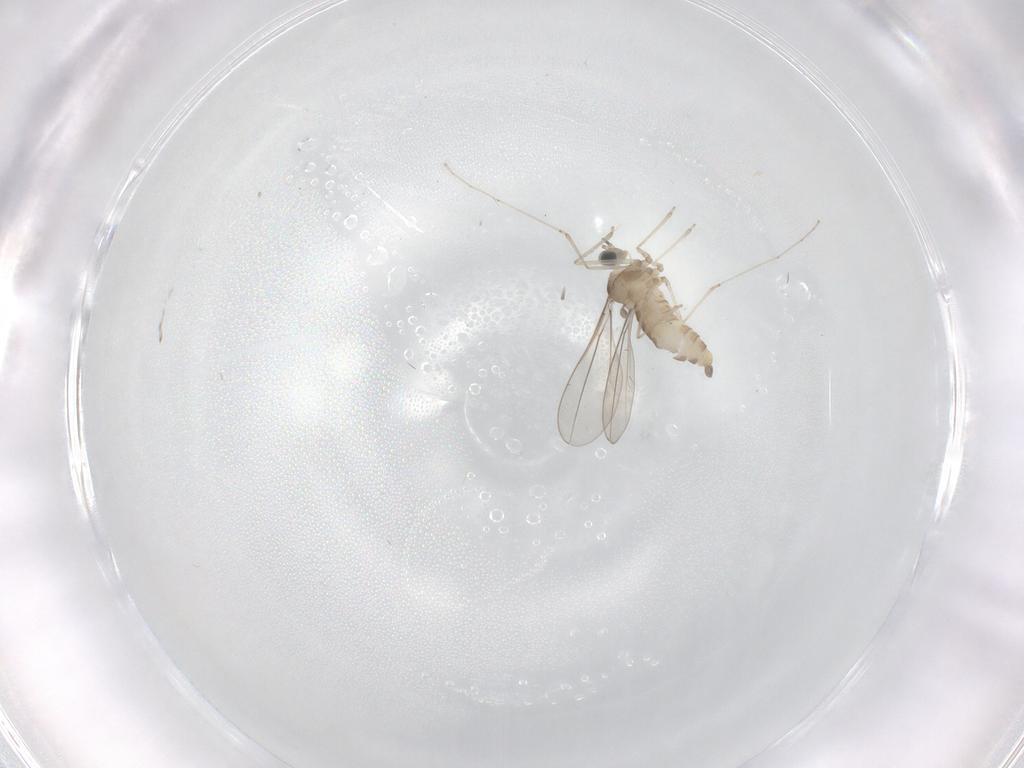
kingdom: Animalia
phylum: Arthropoda
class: Insecta
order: Diptera
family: Cecidomyiidae
